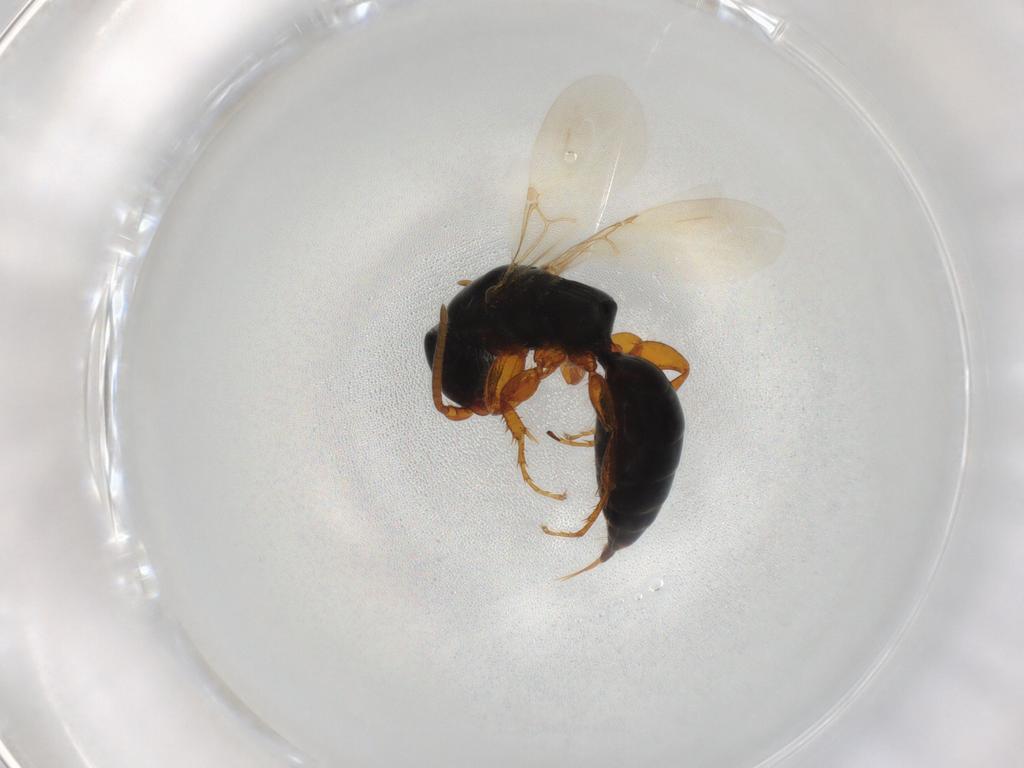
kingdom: Animalia
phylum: Arthropoda
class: Insecta
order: Hymenoptera
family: Bethylidae
